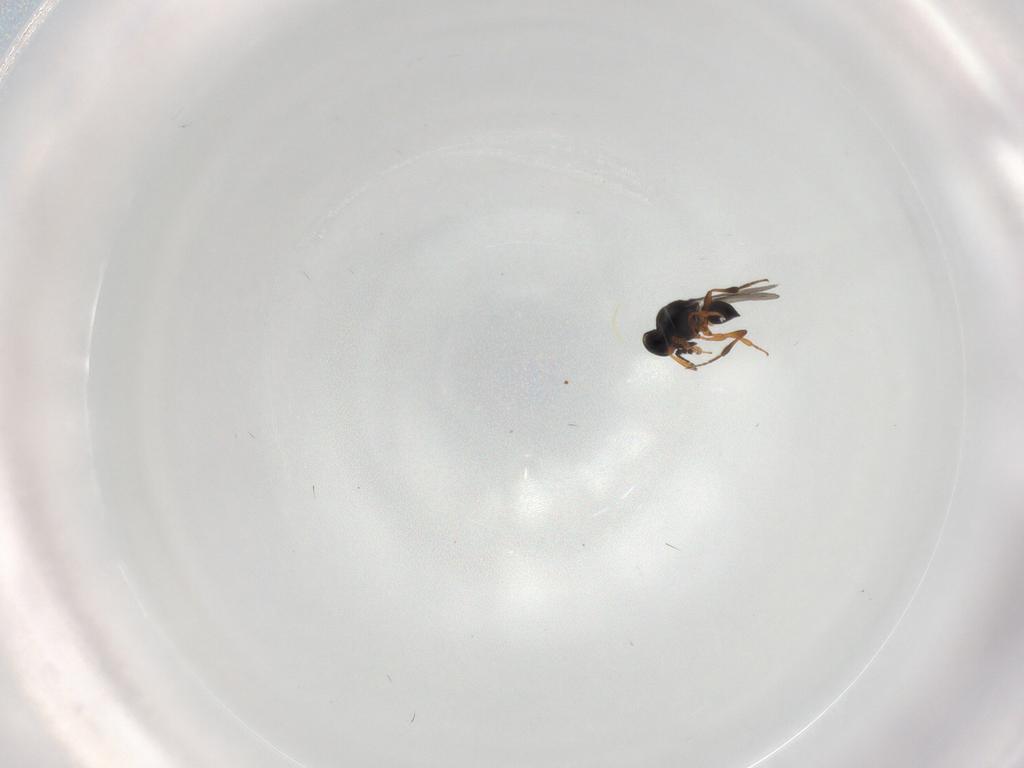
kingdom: Animalia
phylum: Arthropoda
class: Insecta
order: Hymenoptera
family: Platygastridae
